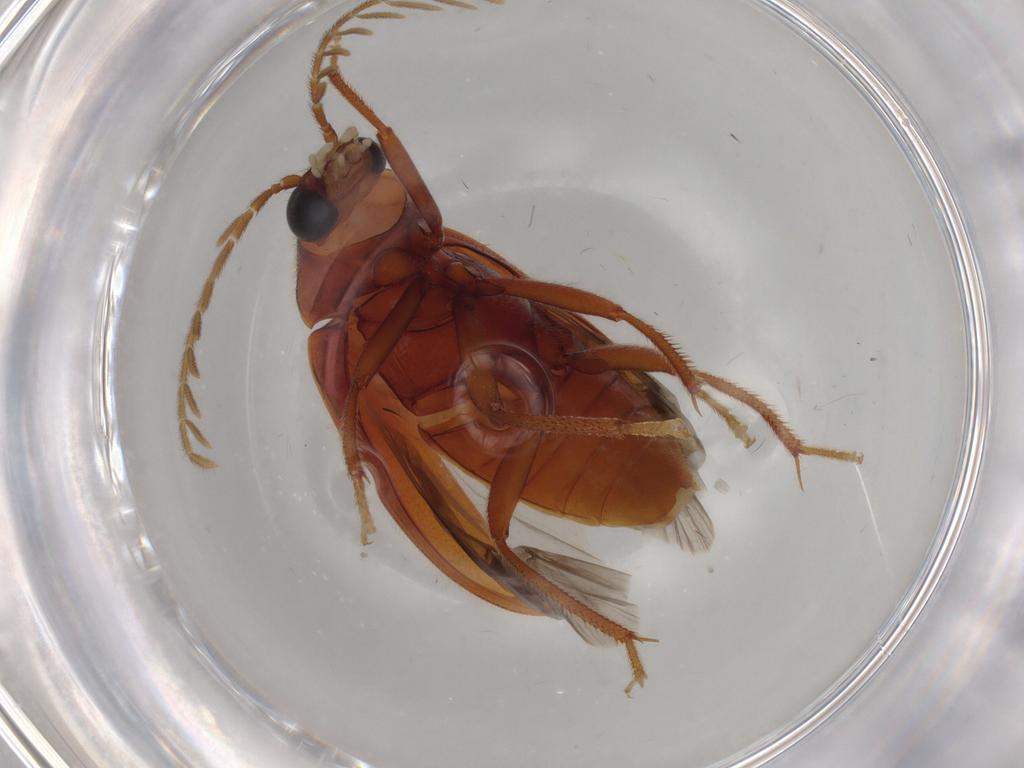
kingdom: Animalia
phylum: Arthropoda
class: Insecta
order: Coleoptera
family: Ptilodactylidae
